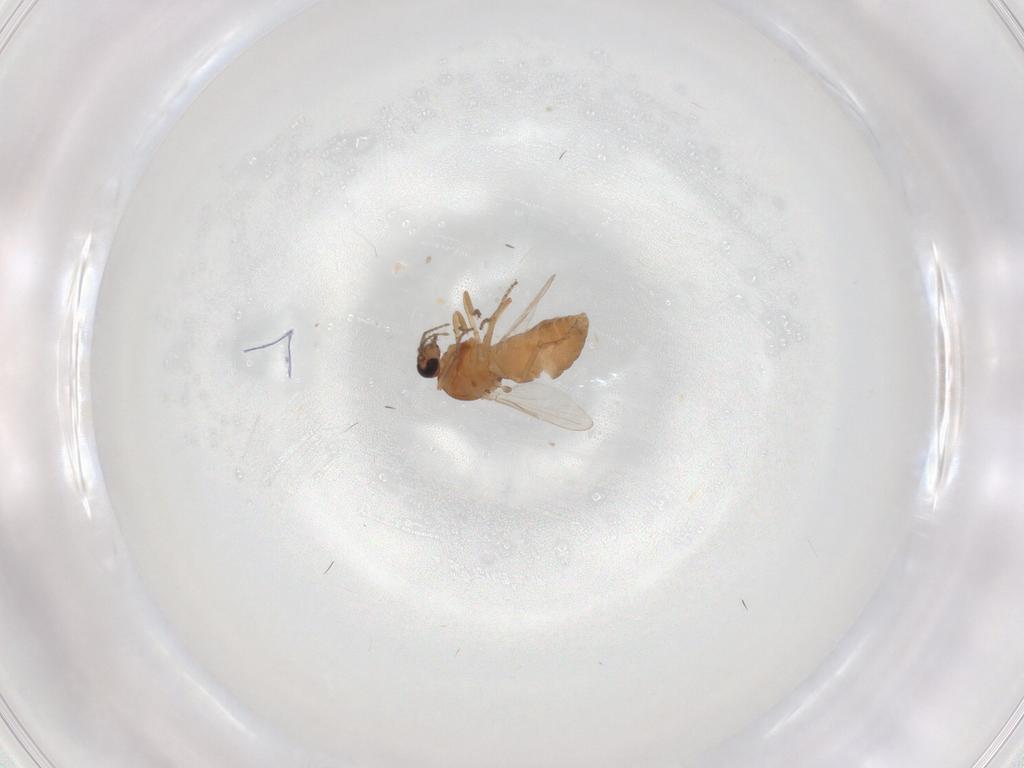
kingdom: Animalia
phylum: Arthropoda
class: Insecta
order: Diptera
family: Ceratopogonidae
